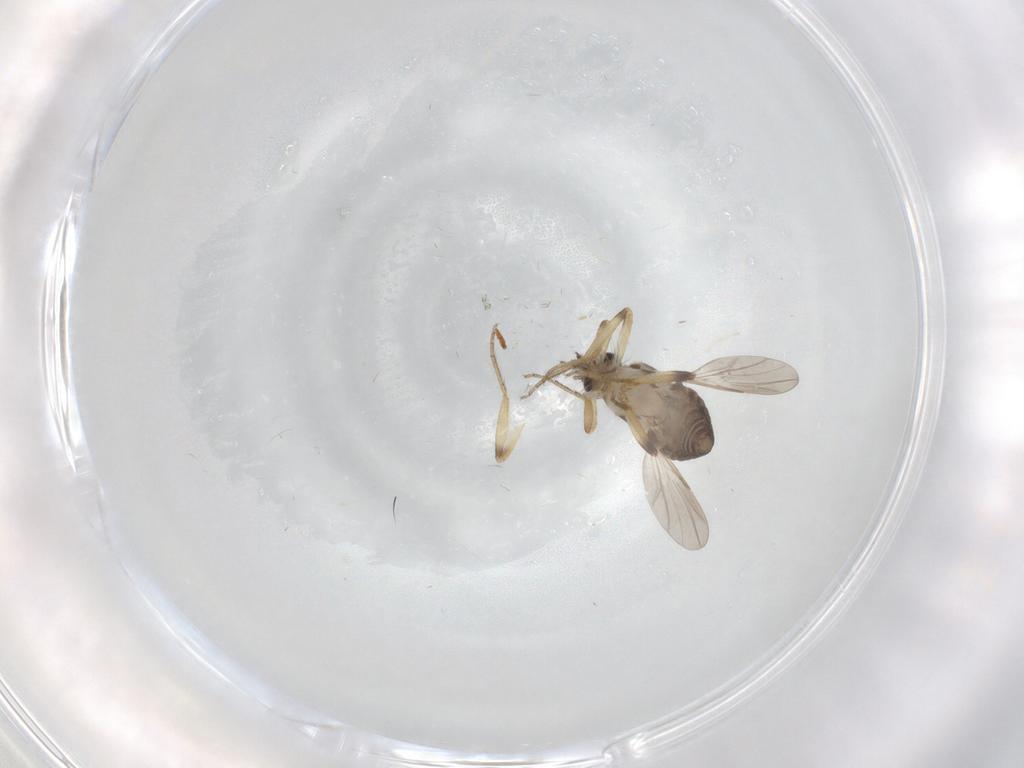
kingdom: Animalia
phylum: Arthropoda
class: Insecta
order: Diptera
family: Ceratopogonidae
